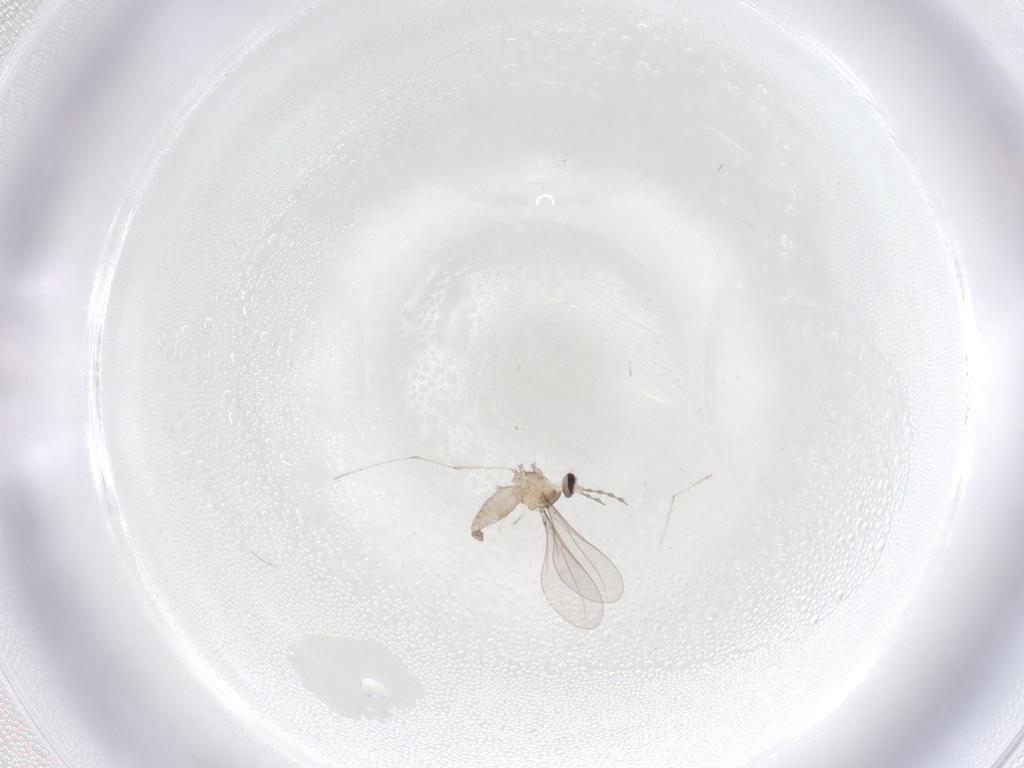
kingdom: Animalia
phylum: Arthropoda
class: Insecta
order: Diptera
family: Cecidomyiidae
